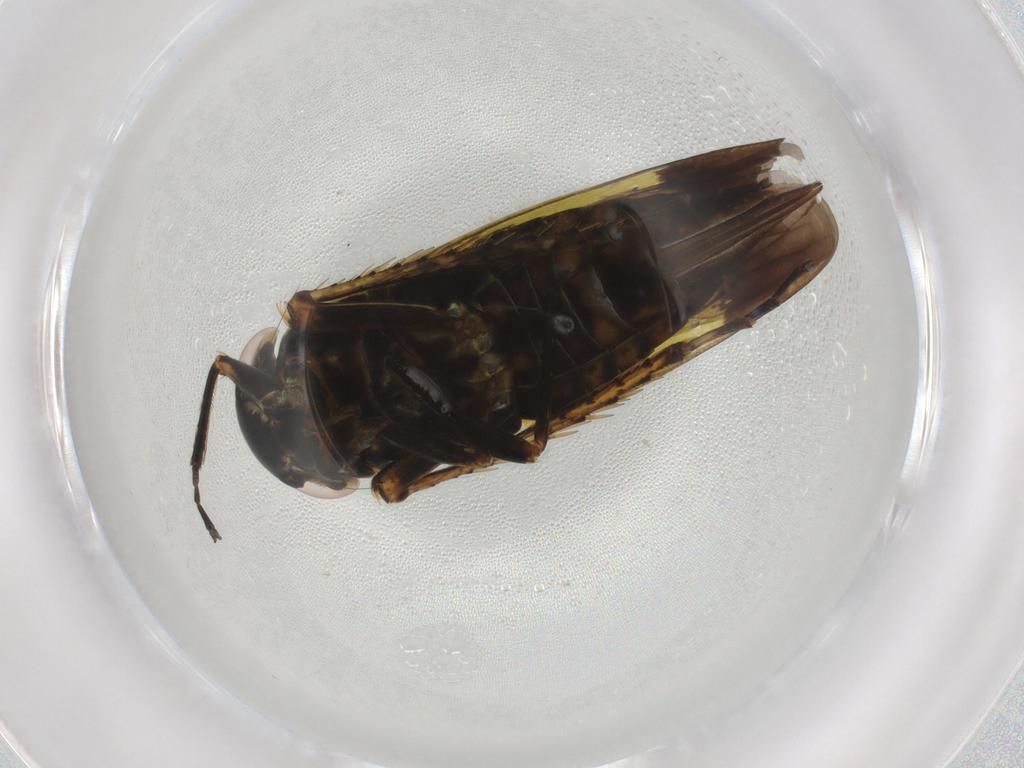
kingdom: Animalia
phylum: Arthropoda
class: Insecta
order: Hemiptera
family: Cicadellidae
